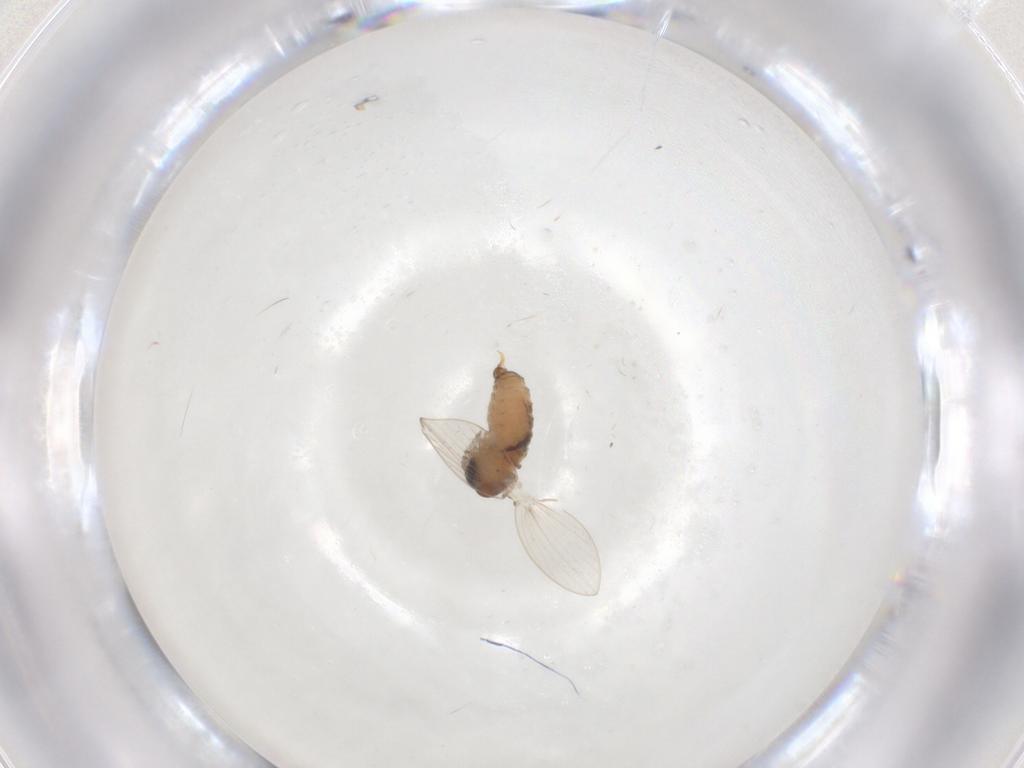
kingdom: Animalia
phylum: Arthropoda
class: Insecta
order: Diptera
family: Psychodidae
